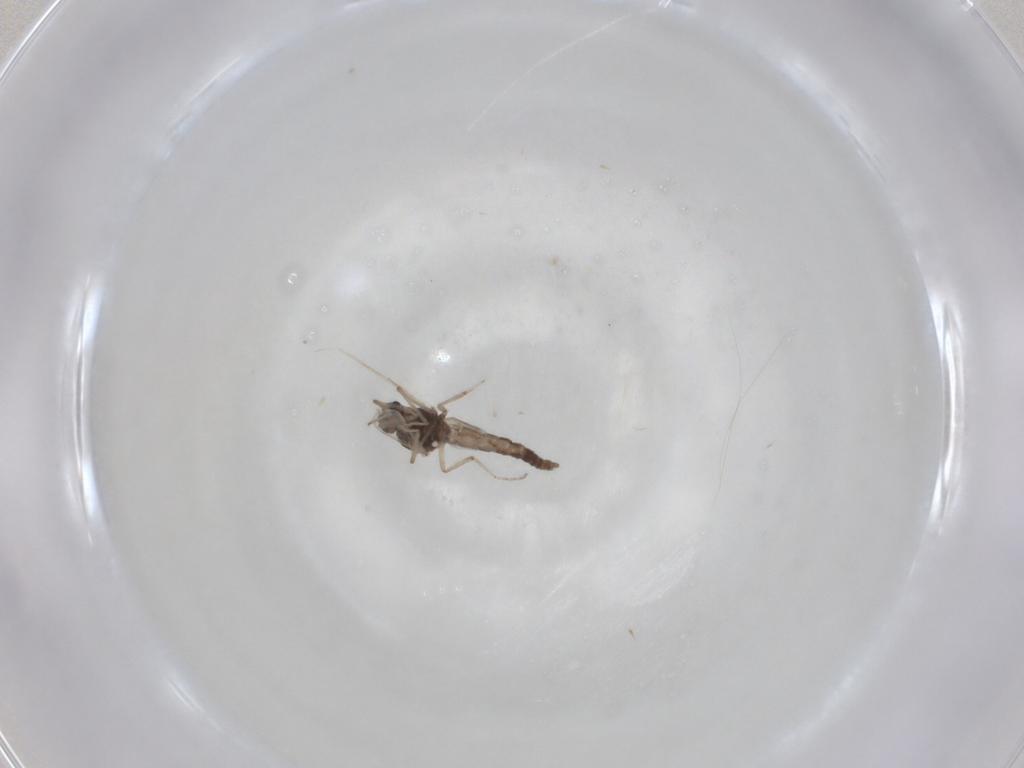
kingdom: Animalia
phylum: Arthropoda
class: Insecta
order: Diptera
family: Ceratopogonidae
